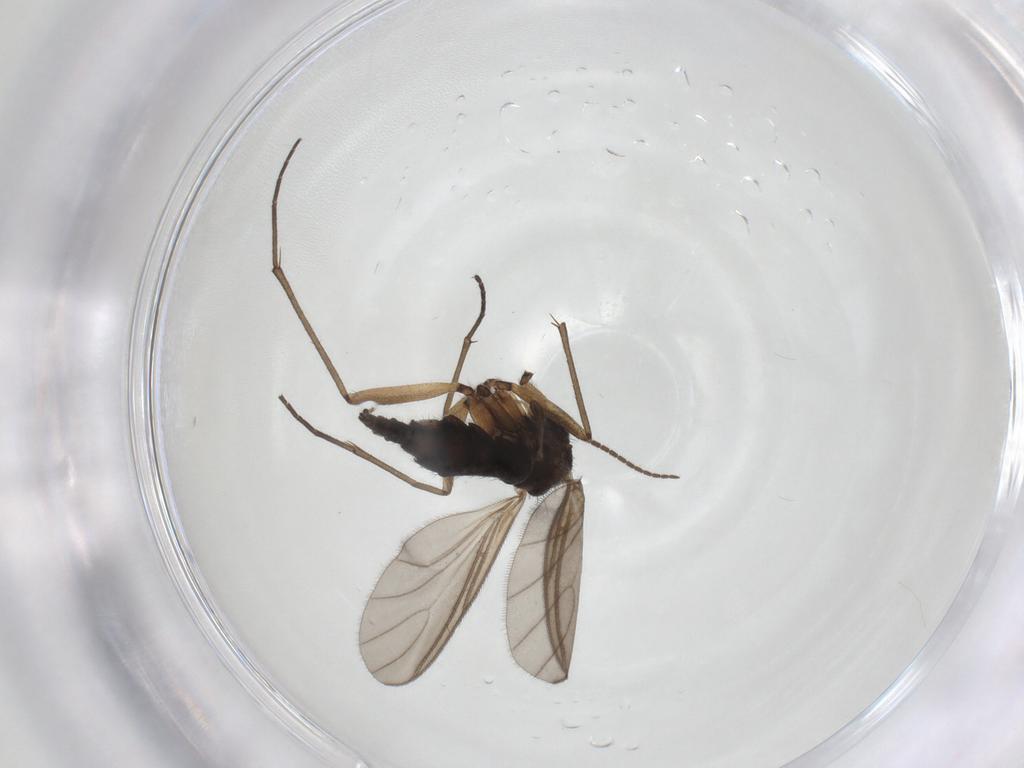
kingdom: Animalia
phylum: Arthropoda
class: Insecta
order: Diptera
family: Sciaridae
